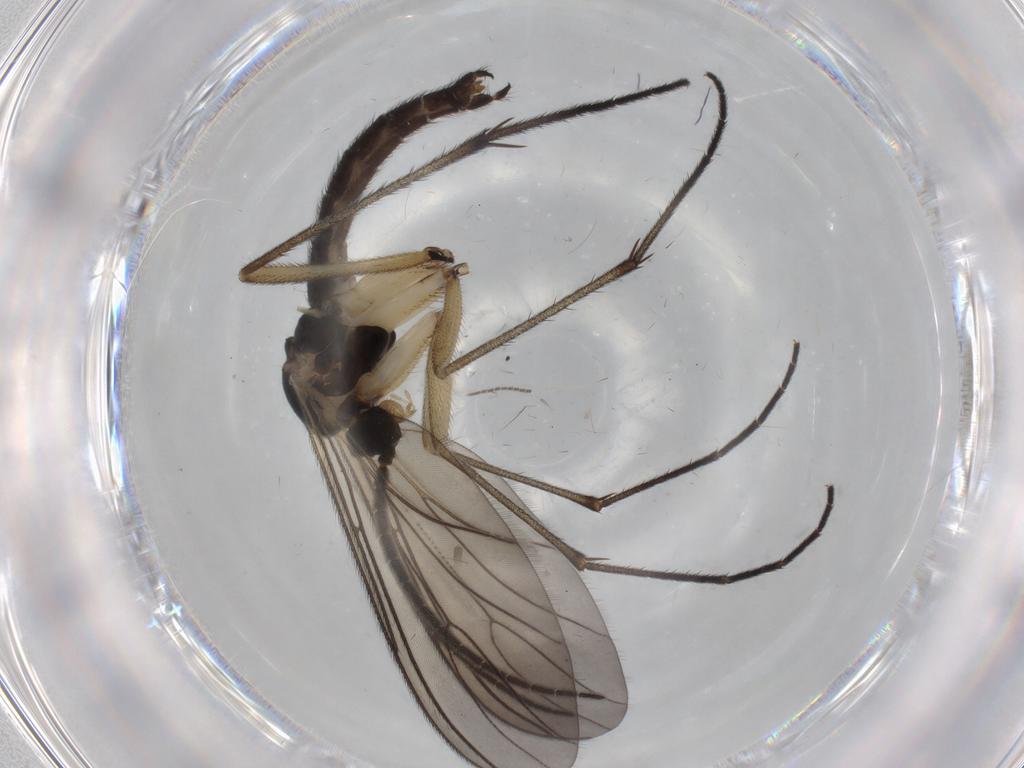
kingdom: Animalia
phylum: Arthropoda
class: Insecta
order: Diptera
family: Sciaridae
